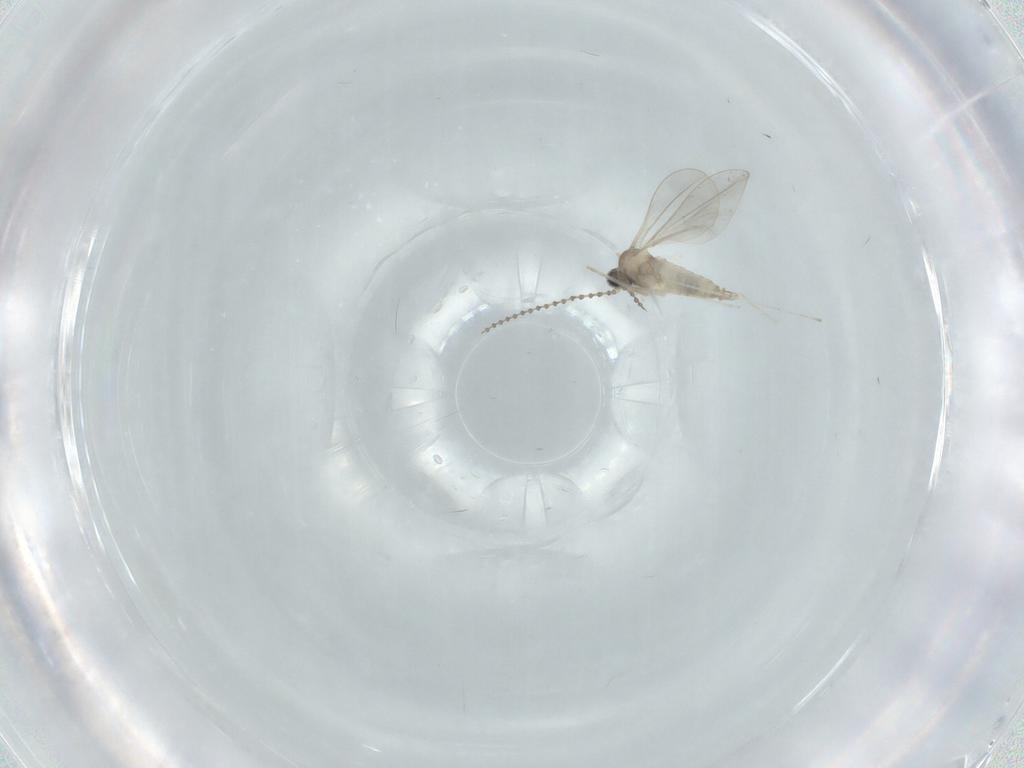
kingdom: Animalia
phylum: Arthropoda
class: Insecta
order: Diptera
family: Cecidomyiidae
